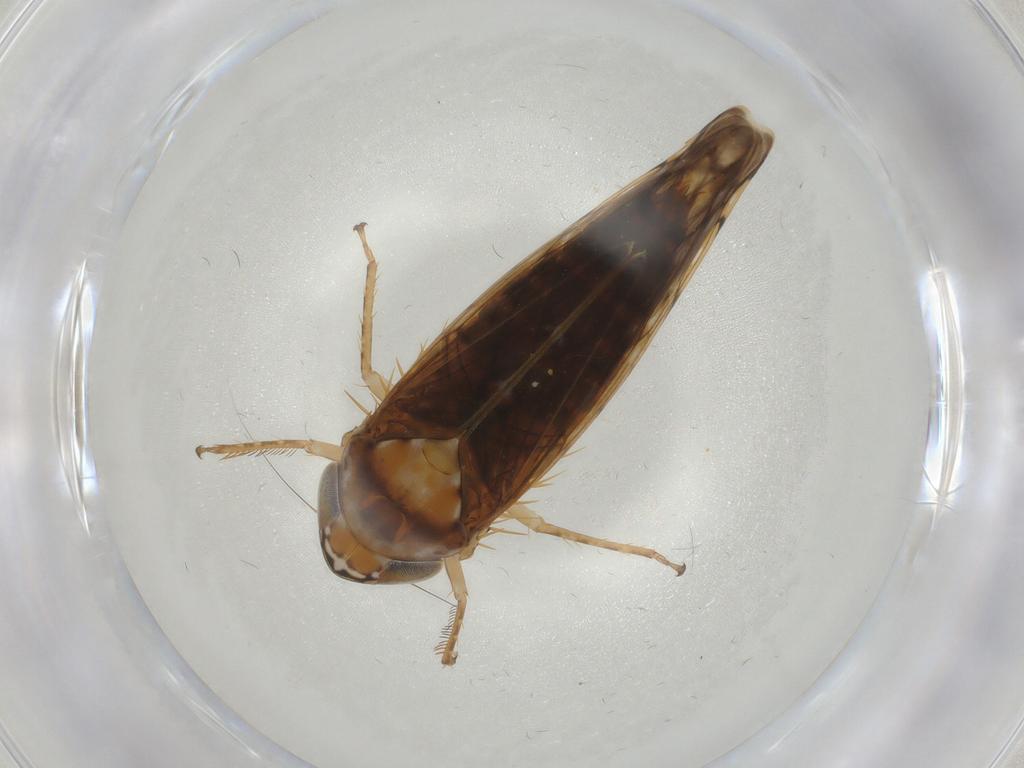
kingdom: Animalia
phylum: Arthropoda
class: Insecta
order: Hemiptera
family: Cicadellidae
